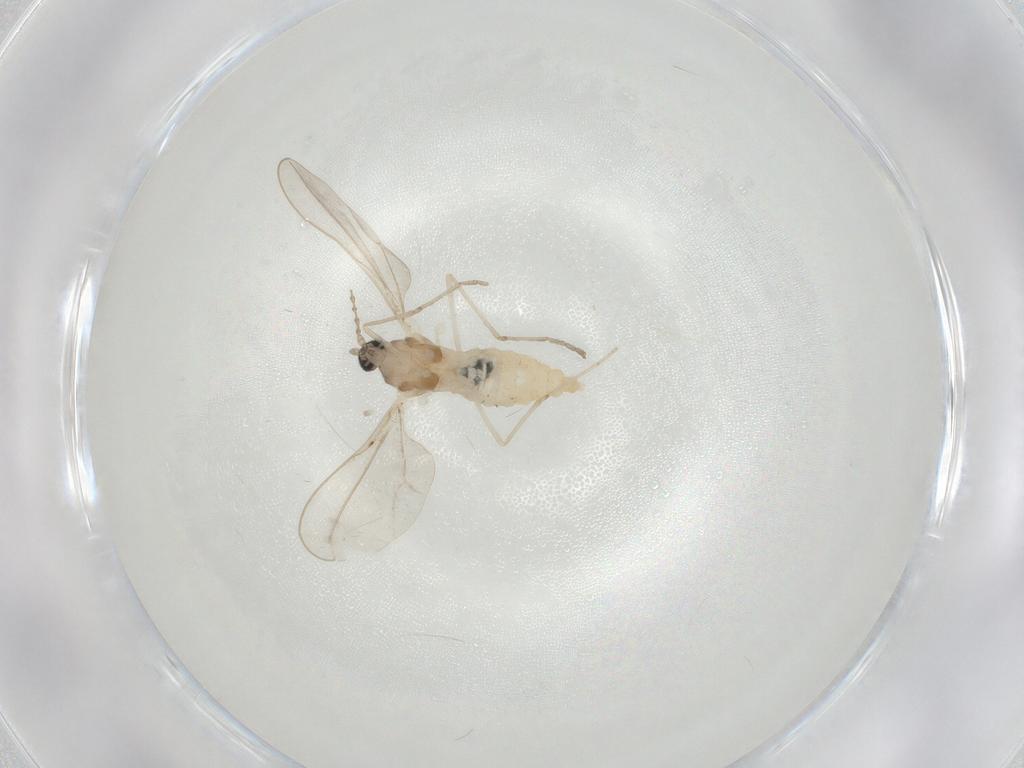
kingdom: Animalia
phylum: Arthropoda
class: Insecta
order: Diptera
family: Cecidomyiidae
